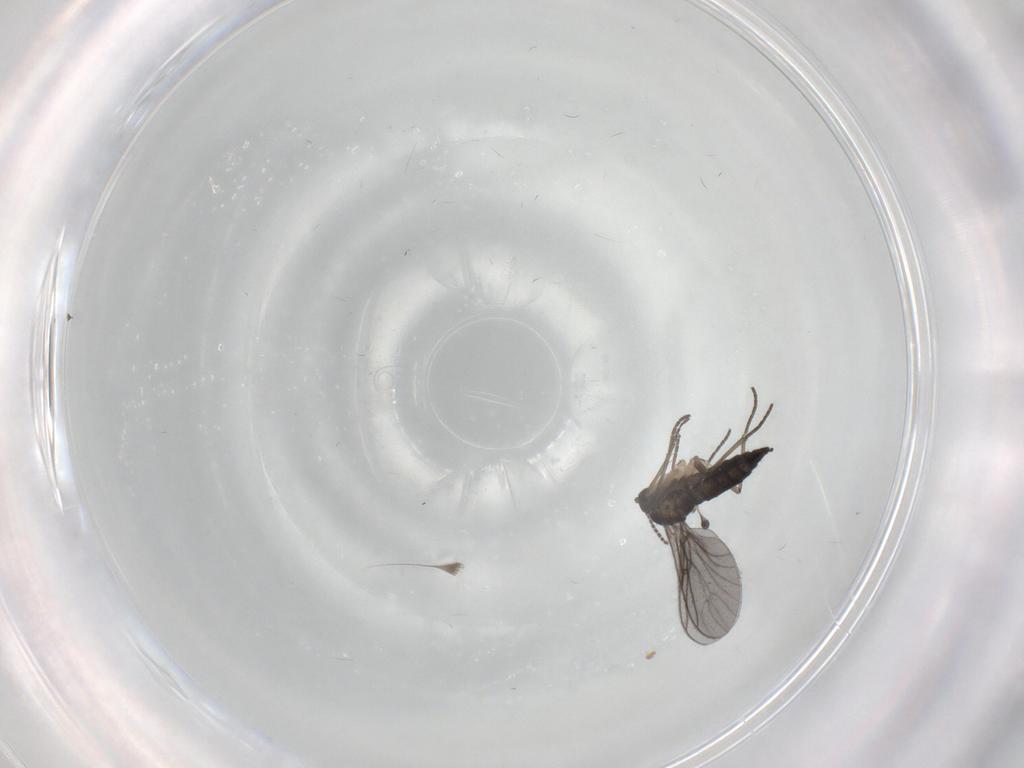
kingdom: Animalia
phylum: Arthropoda
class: Insecta
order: Diptera
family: Sciaridae
